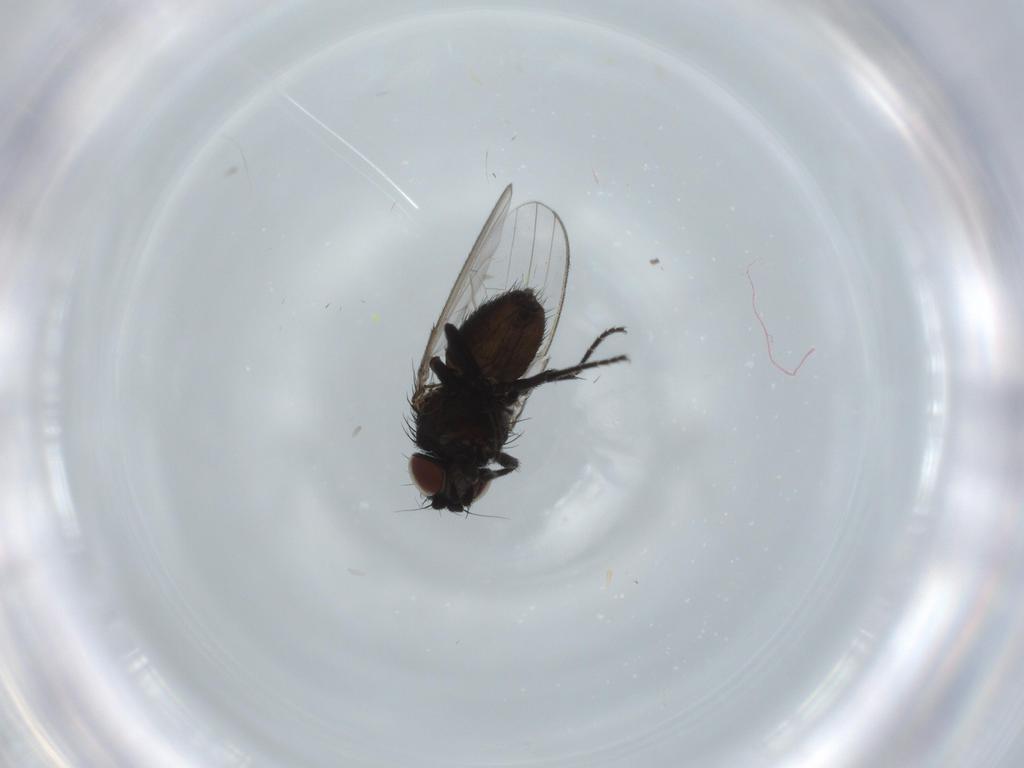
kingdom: Animalia
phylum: Arthropoda
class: Insecta
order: Diptera
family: Milichiidae
